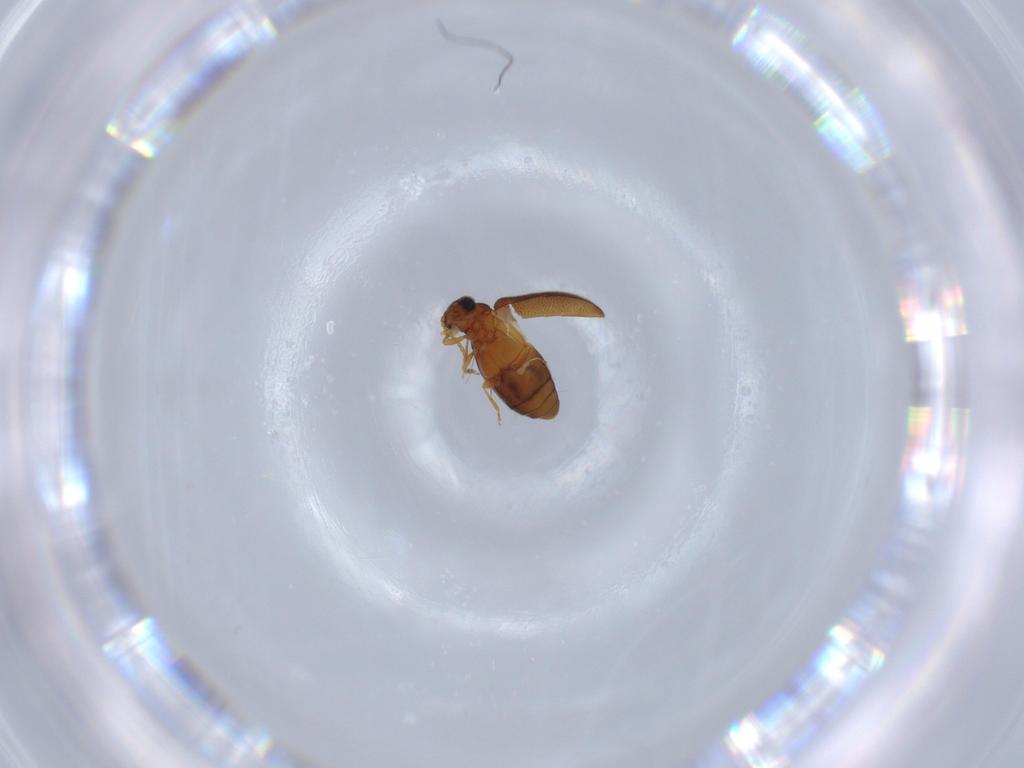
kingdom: Animalia
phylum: Arthropoda
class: Insecta
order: Coleoptera
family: Aderidae
